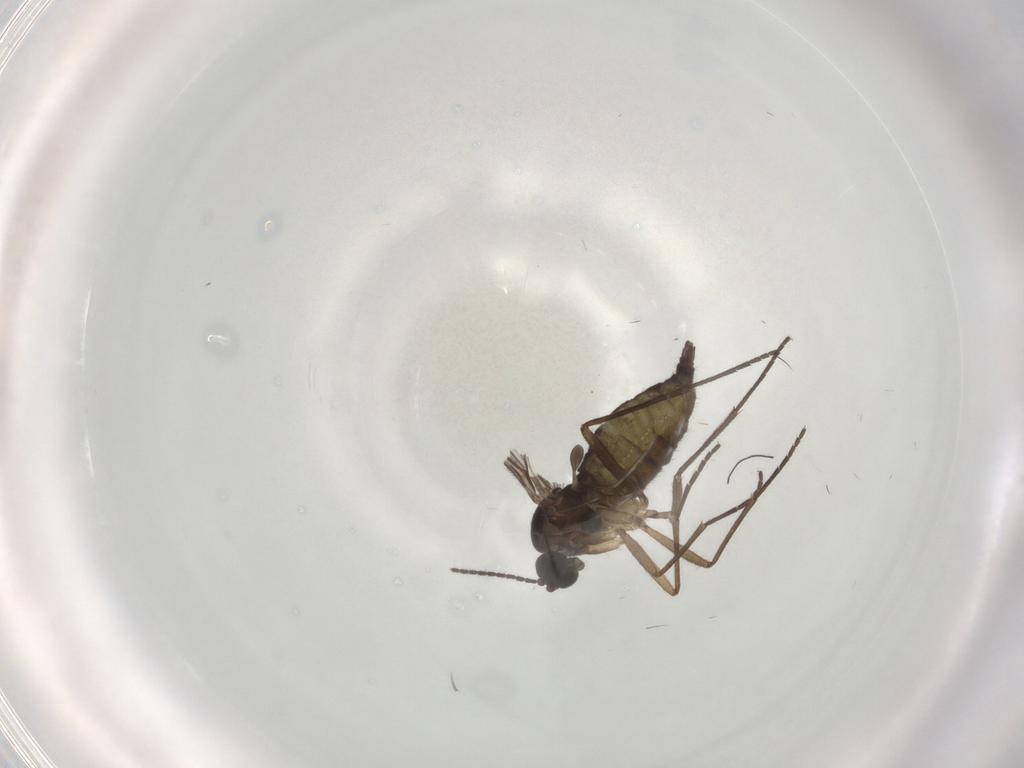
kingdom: Animalia
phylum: Arthropoda
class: Insecta
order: Diptera
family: Sciaridae
